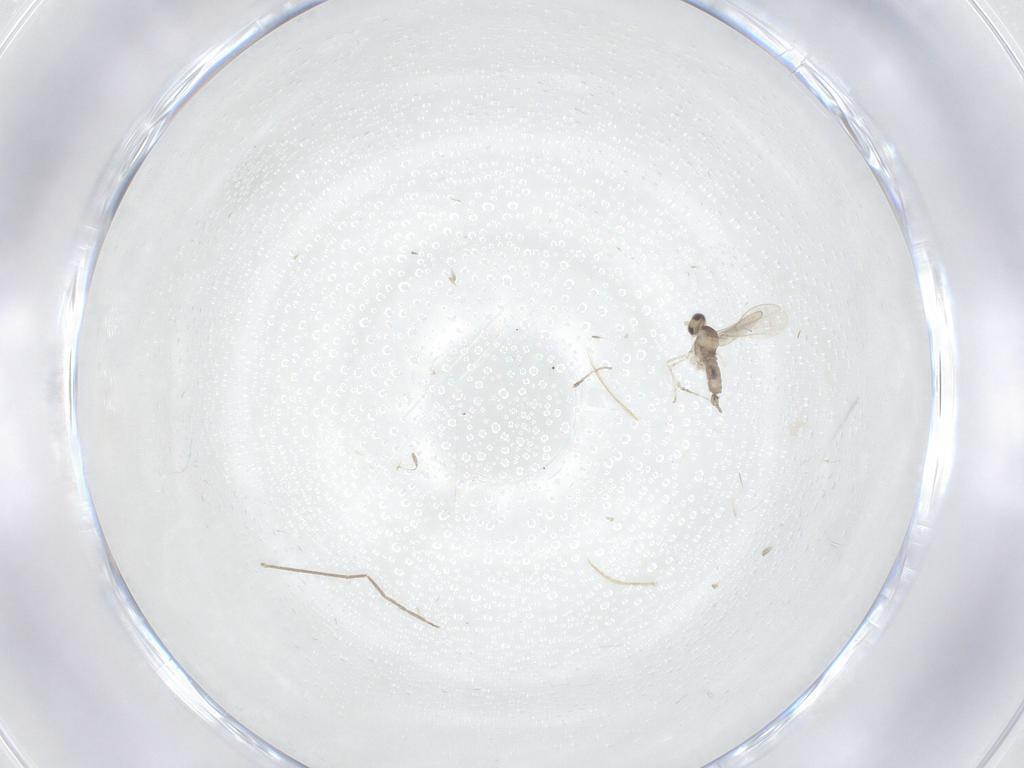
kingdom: Animalia
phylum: Arthropoda
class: Insecta
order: Diptera
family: Cecidomyiidae
